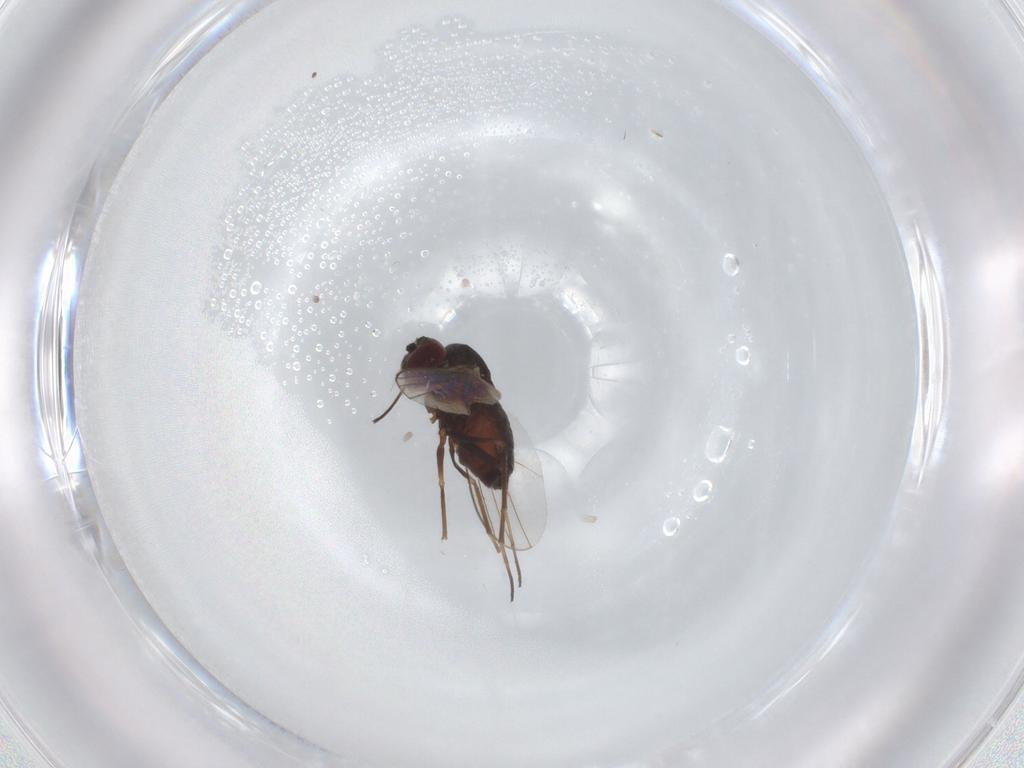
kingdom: Animalia
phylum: Arthropoda
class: Insecta
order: Diptera
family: Dolichopodidae
